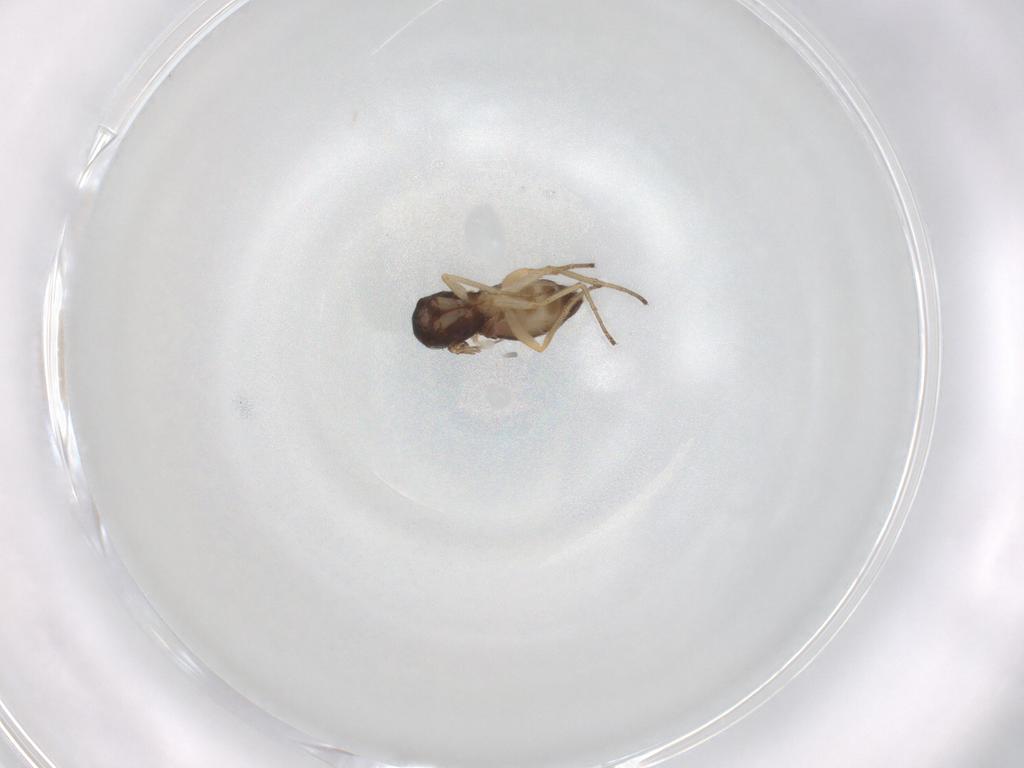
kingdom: Animalia
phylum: Arthropoda
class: Insecta
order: Diptera
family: Dolichopodidae
